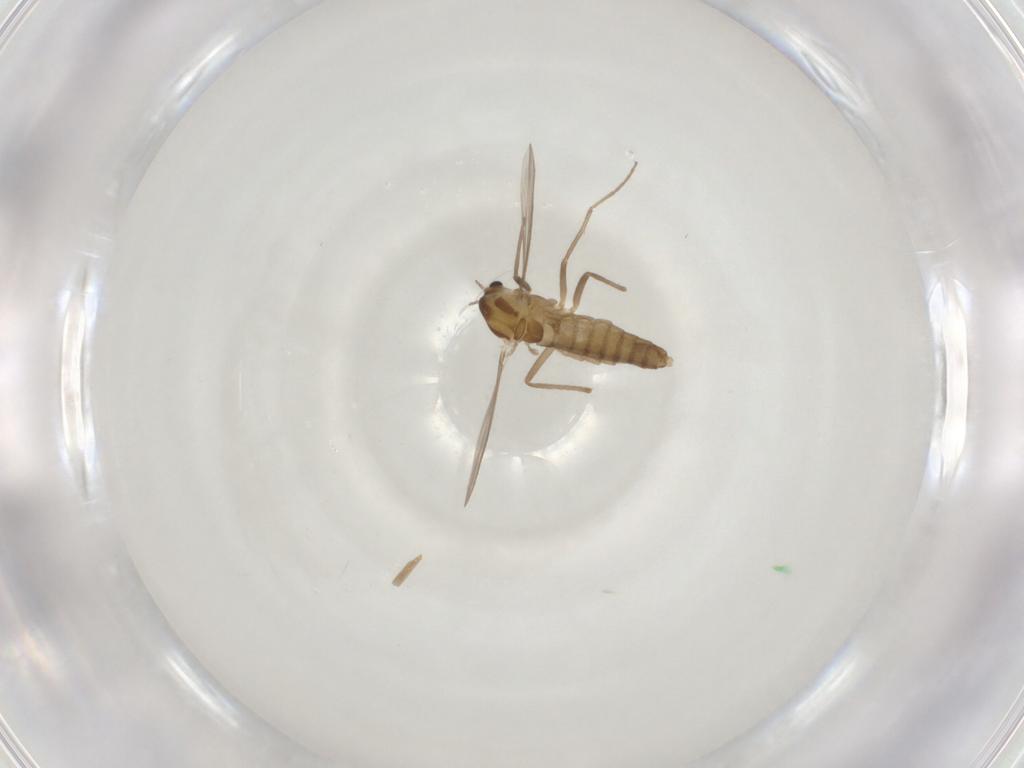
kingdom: Animalia
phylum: Arthropoda
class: Insecta
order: Diptera
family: Chironomidae
